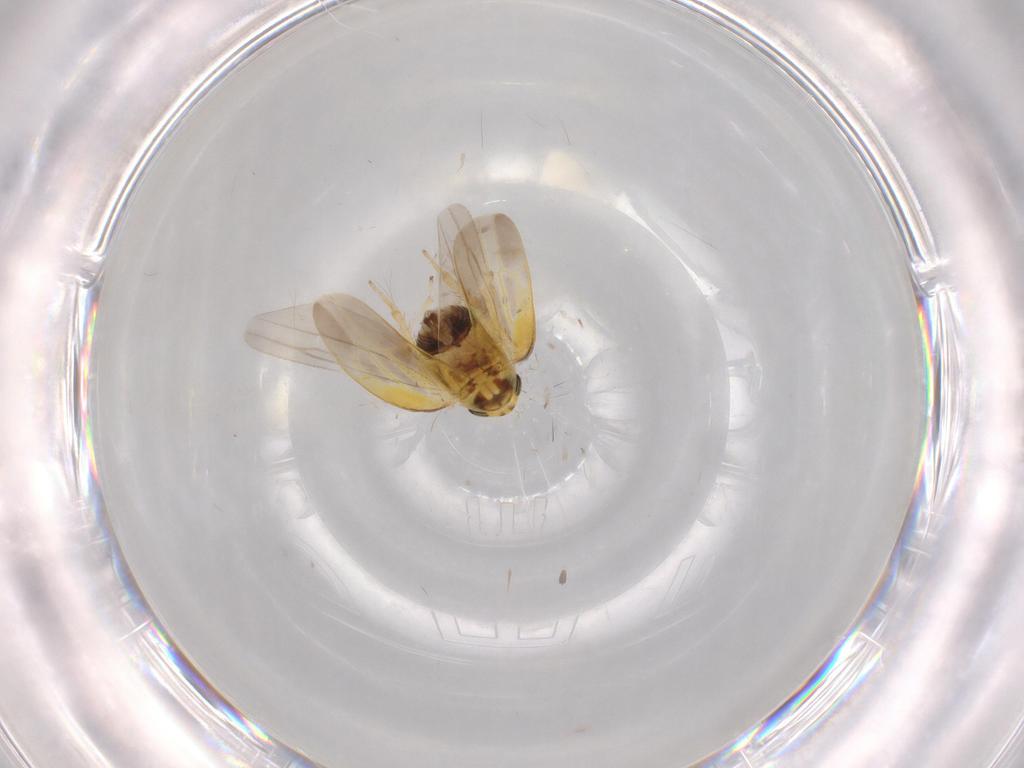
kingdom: Animalia
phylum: Arthropoda
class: Insecta
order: Hemiptera
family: Cicadellidae
